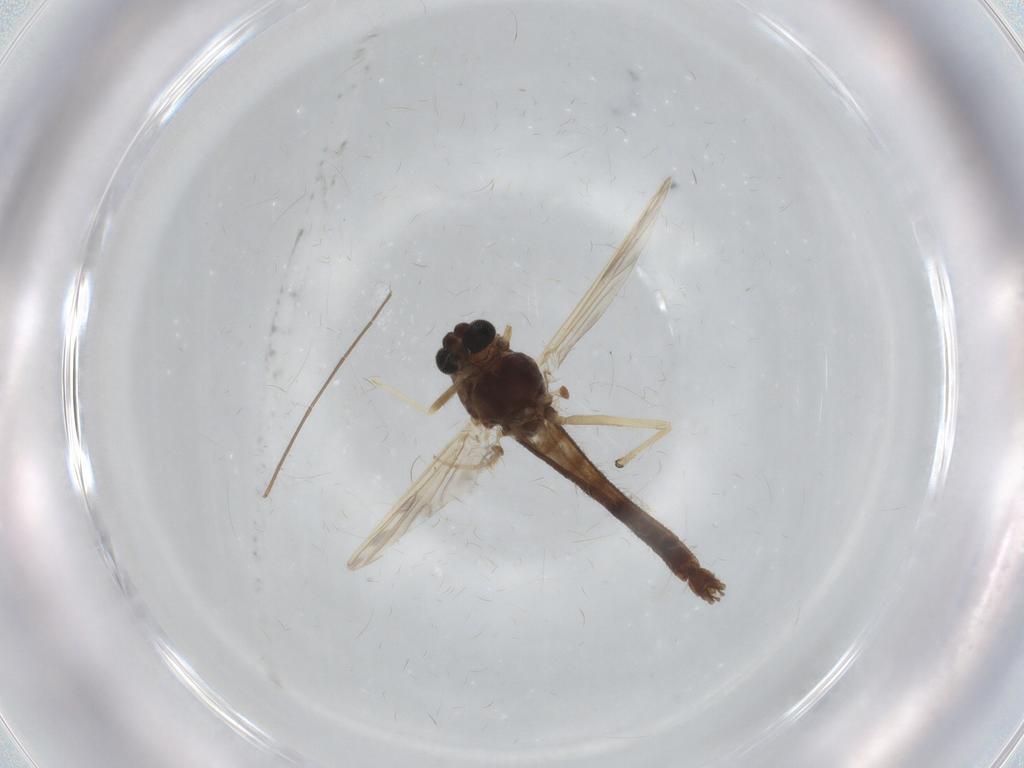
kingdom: Animalia
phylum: Arthropoda
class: Insecta
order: Diptera
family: Chironomidae
